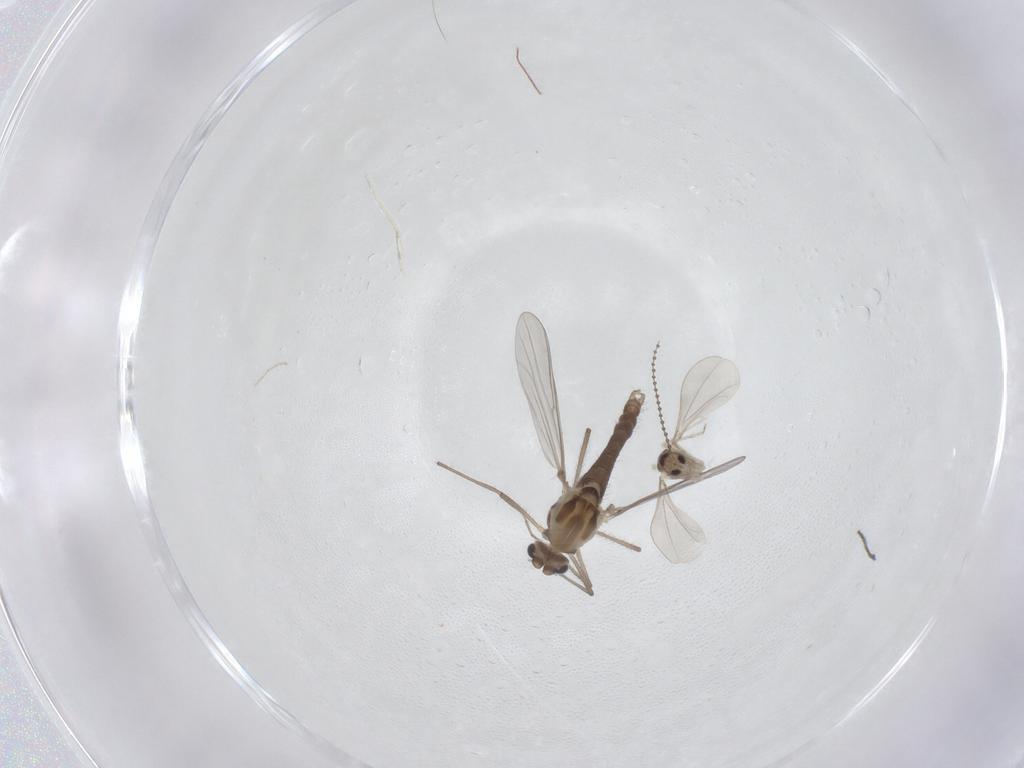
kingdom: Animalia
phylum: Arthropoda
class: Insecta
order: Diptera
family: Chironomidae
